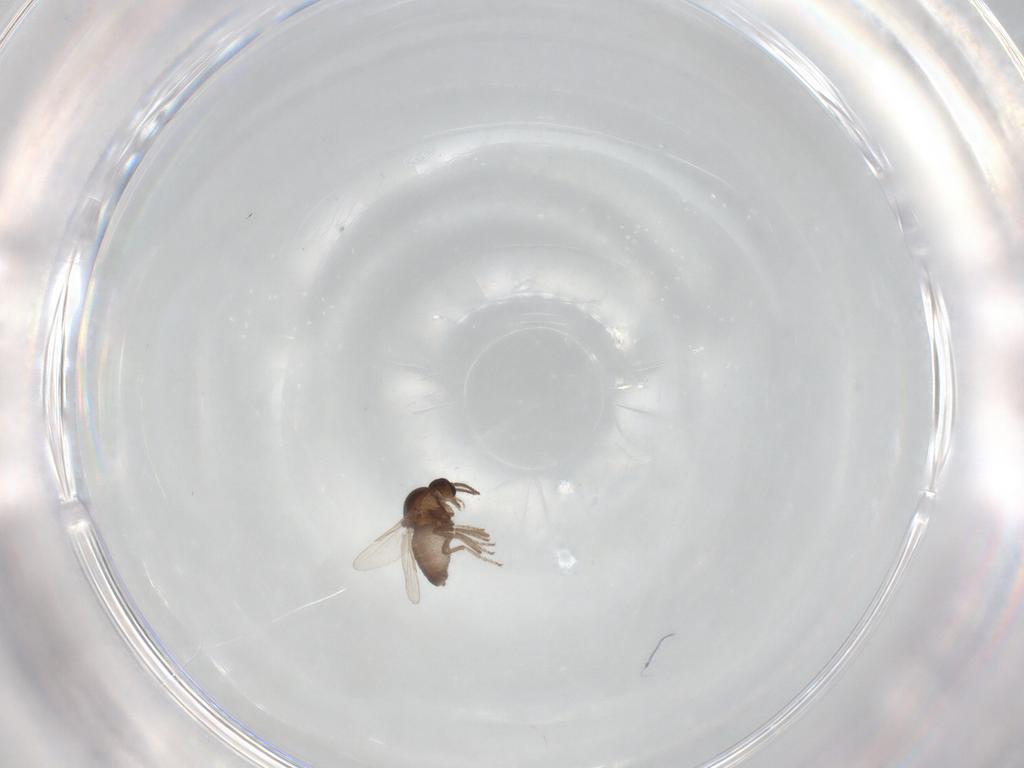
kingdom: Animalia
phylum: Arthropoda
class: Insecta
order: Diptera
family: Ceratopogonidae
